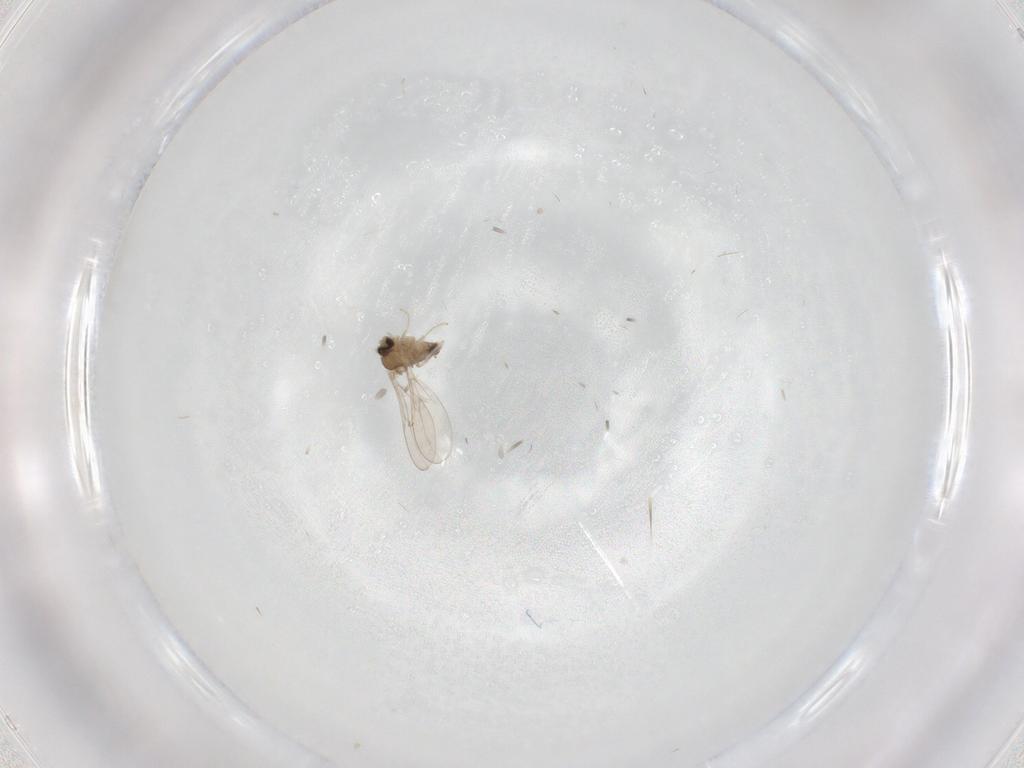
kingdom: Animalia
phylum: Arthropoda
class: Insecta
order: Diptera
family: Cecidomyiidae
